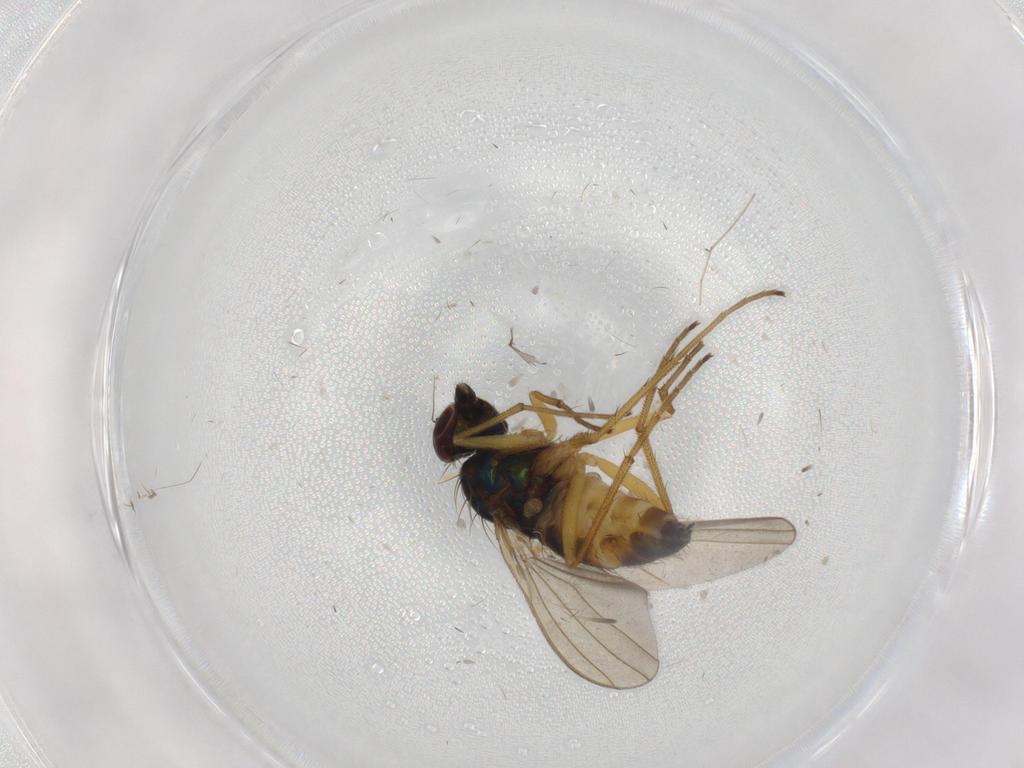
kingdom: Animalia
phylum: Arthropoda
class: Insecta
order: Diptera
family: Dolichopodidae
